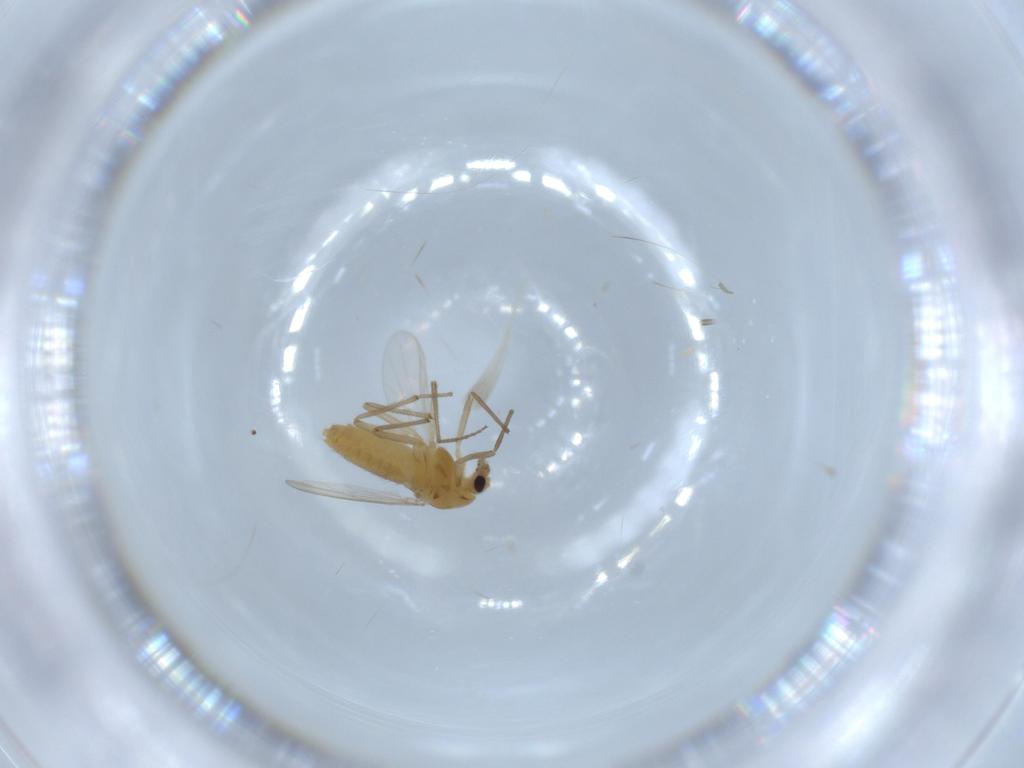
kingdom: Animalia
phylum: Arthropoda
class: Insecta
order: Diptera
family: Chironomidae
